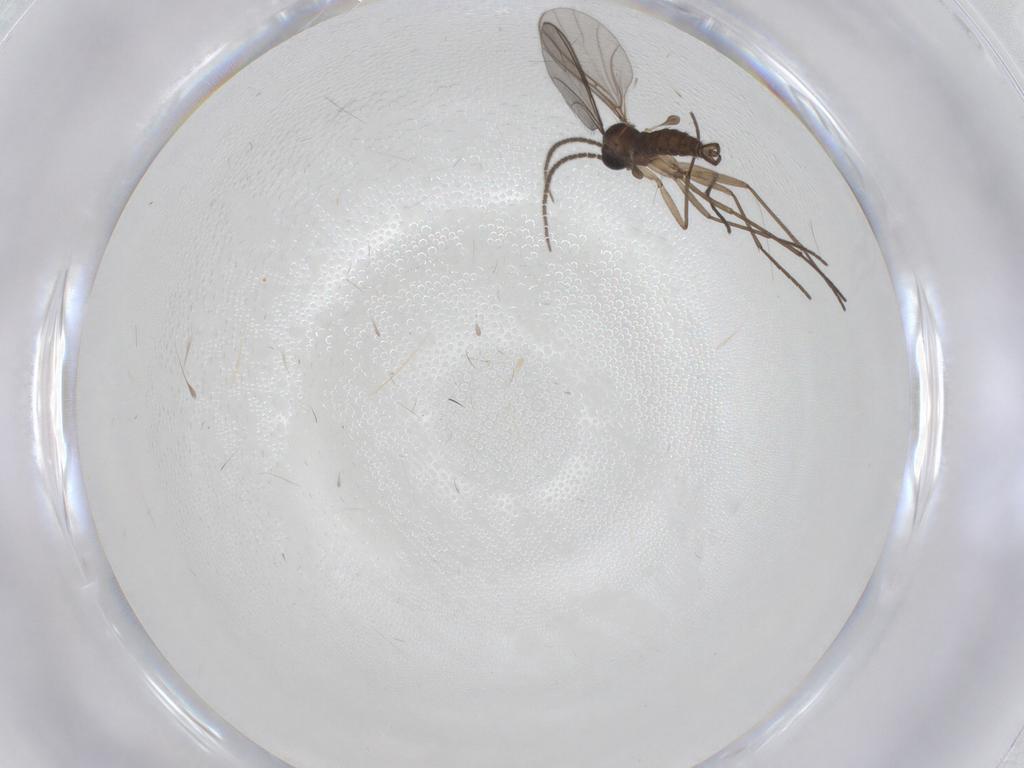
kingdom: Animalia
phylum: Arthropoda
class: Insecta
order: Diptera
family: Sciaridae
